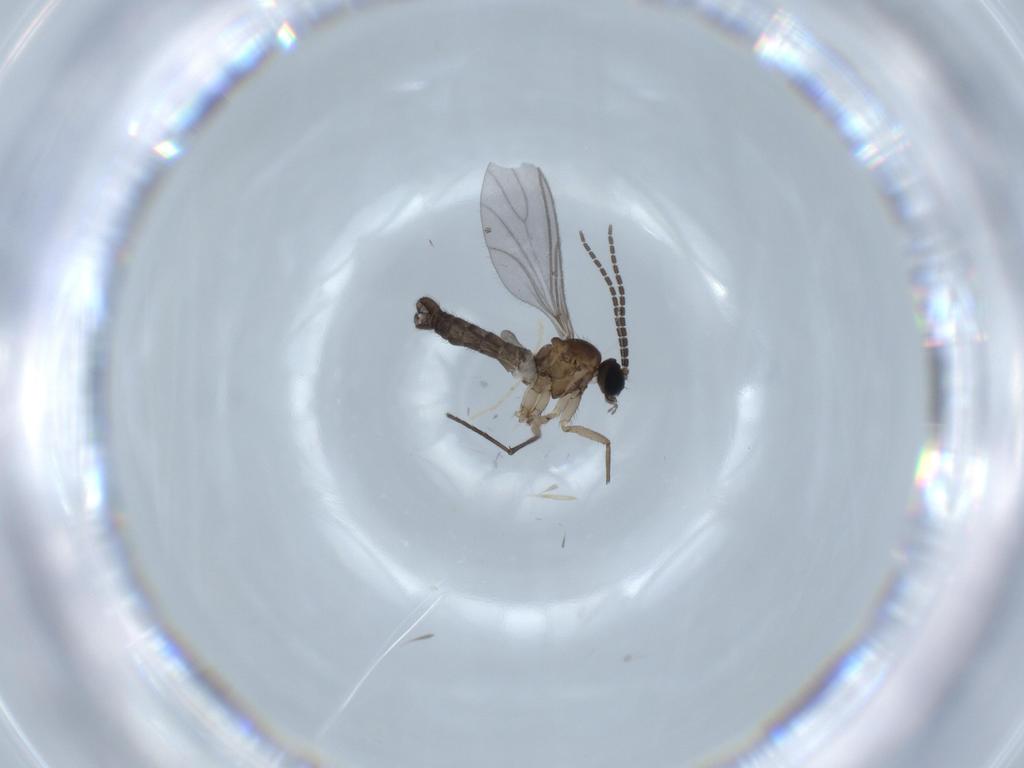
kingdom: Animalia
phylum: Arthropoda
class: Insecta
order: Diptera
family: Sciaridae
